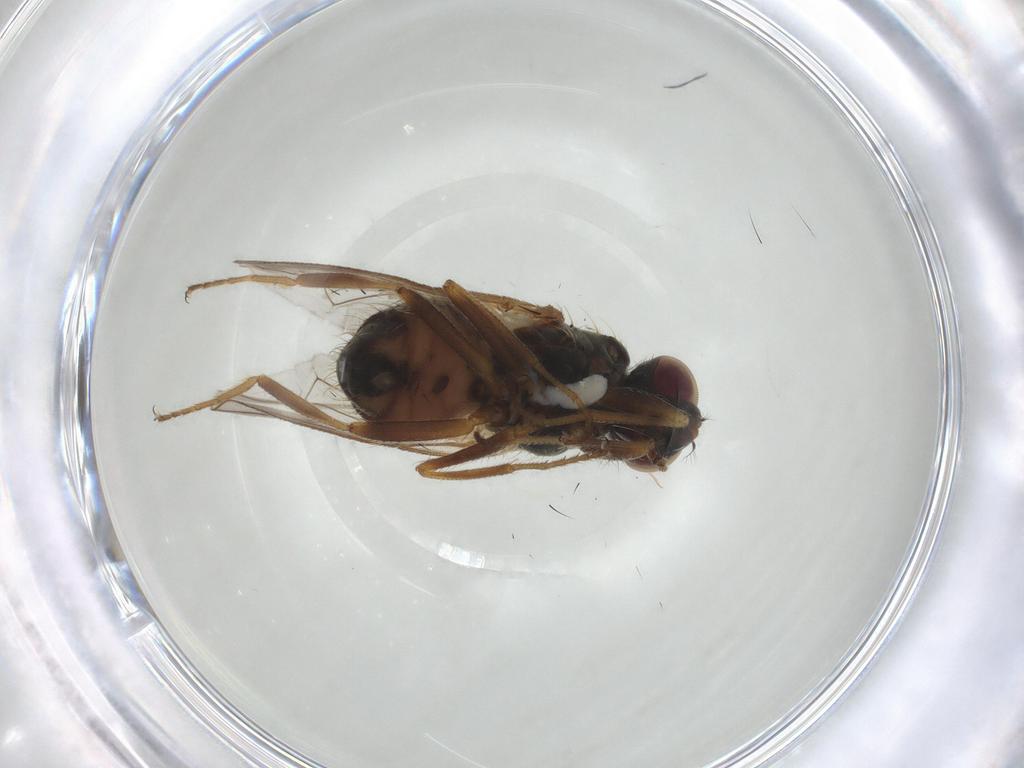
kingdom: Animalia
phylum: Arthropoda
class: Insecta
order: Diptera
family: Muscidae
